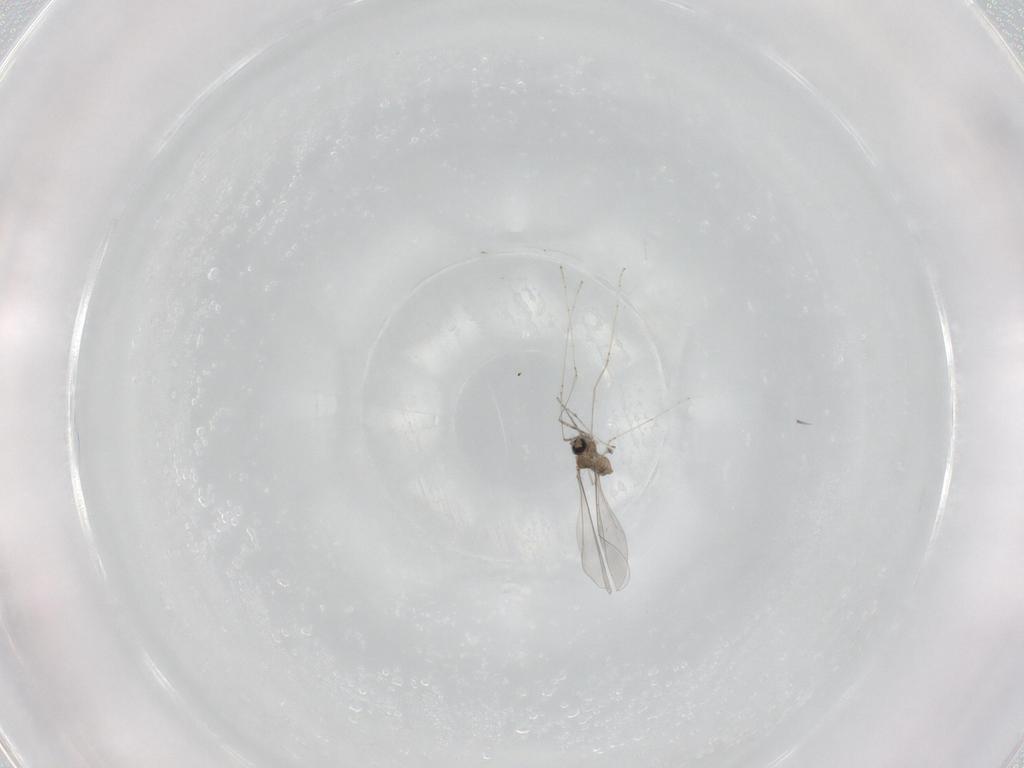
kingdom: Animalia
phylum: Arthropoda
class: Insecta
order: Diptera
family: Cecidomyiidae
